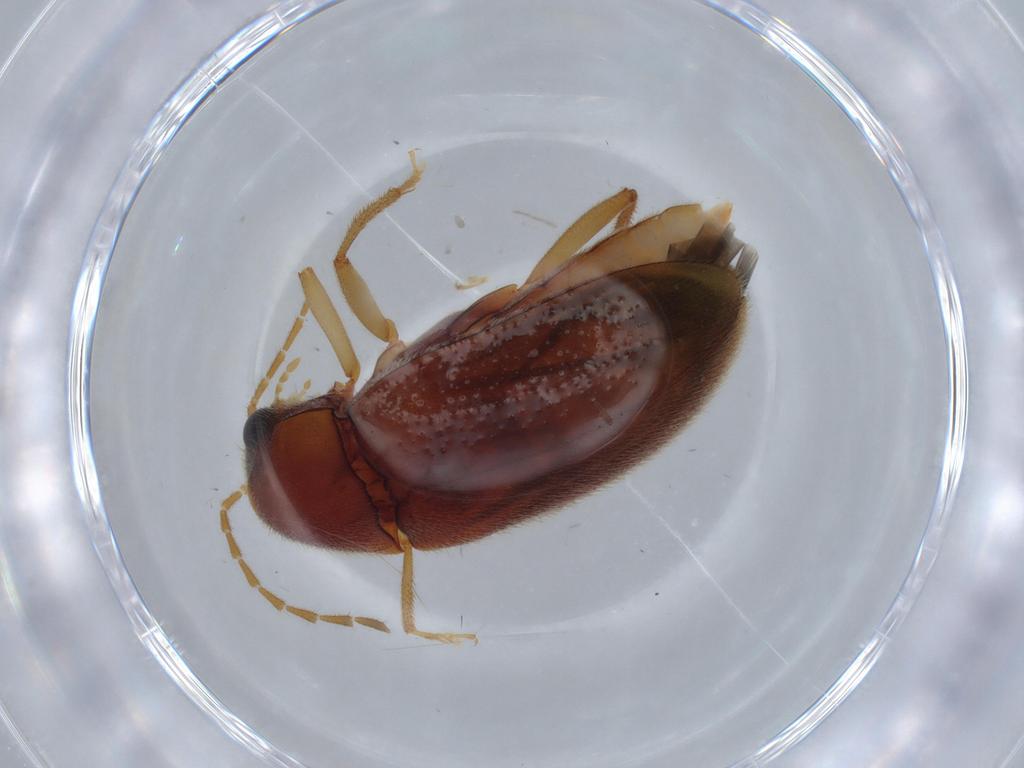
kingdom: Animalia
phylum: Arthropoda
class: Insecta
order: Coleoptera
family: Ptilodactylidae
